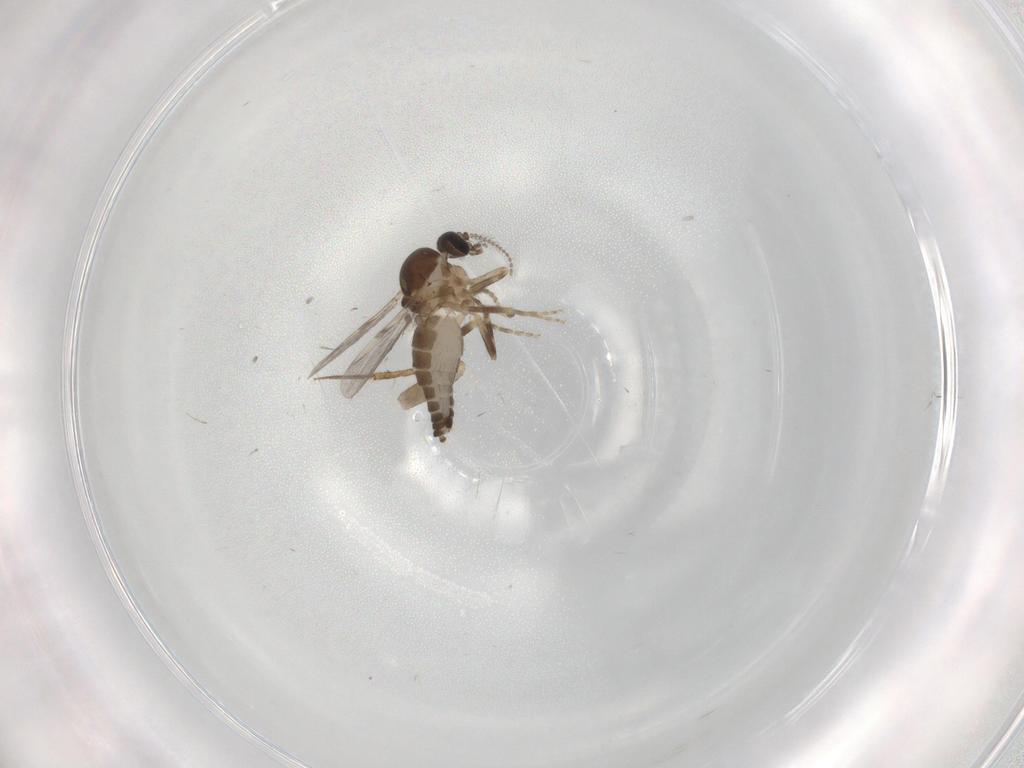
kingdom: Animalia
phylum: Arthropoda
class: Insecta
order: Diptera
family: Ceratopogonidae
